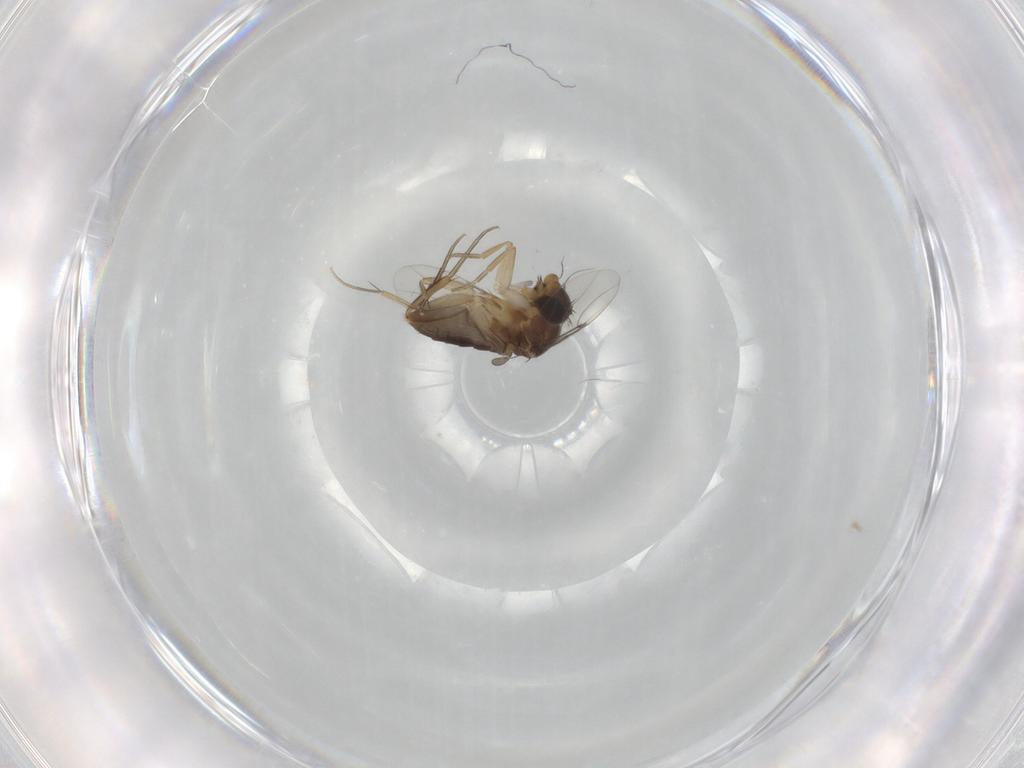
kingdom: Animalia
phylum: Arthropoda
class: Insecta
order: Diptera
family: Phoridae
